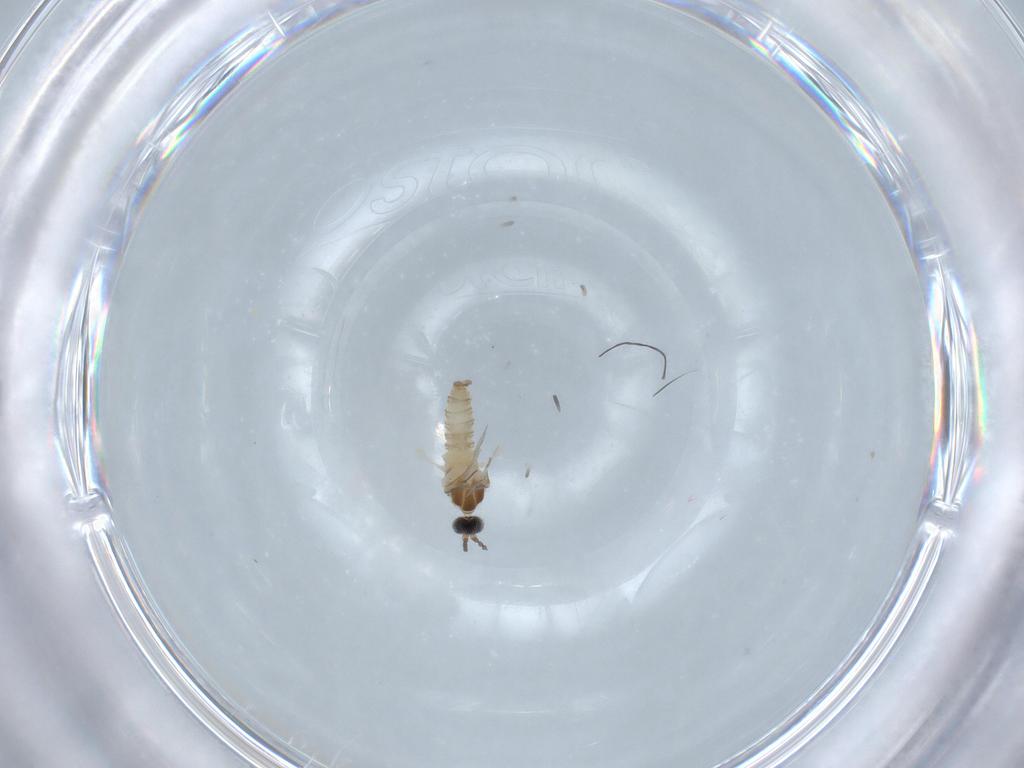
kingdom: Animalia
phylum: Arthropoda
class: Insecta
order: Diptera
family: Cecidomyiidae
